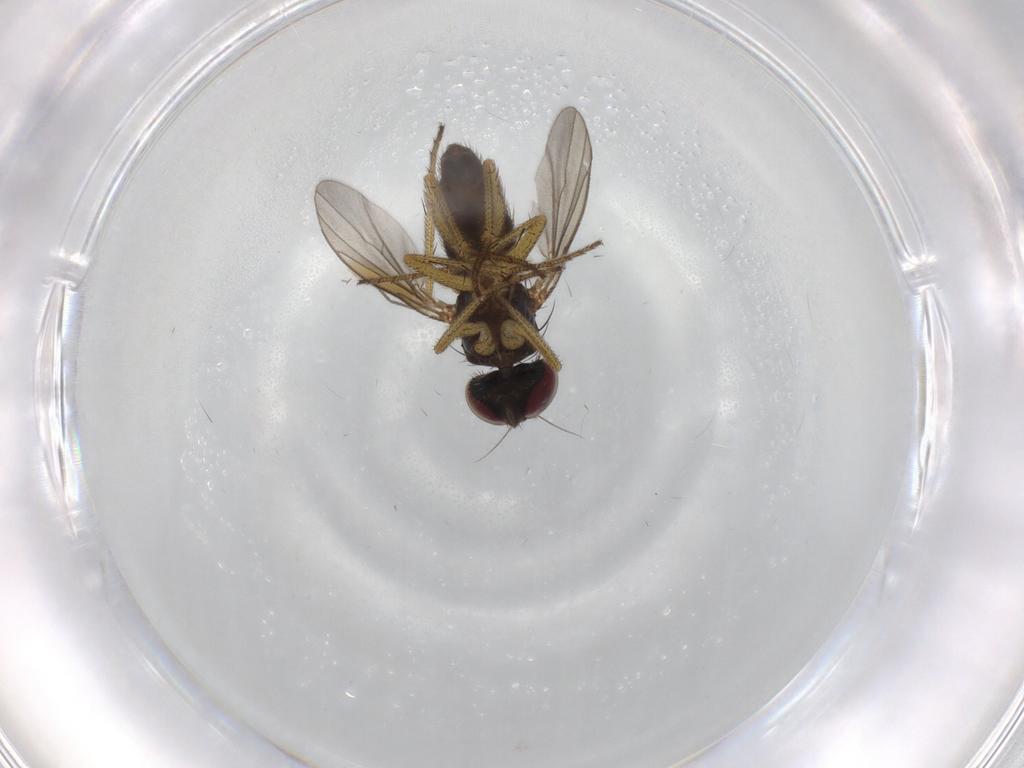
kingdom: Animalia
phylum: Arthropoda
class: Insecta
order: Diptera
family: Dolichopodidae
